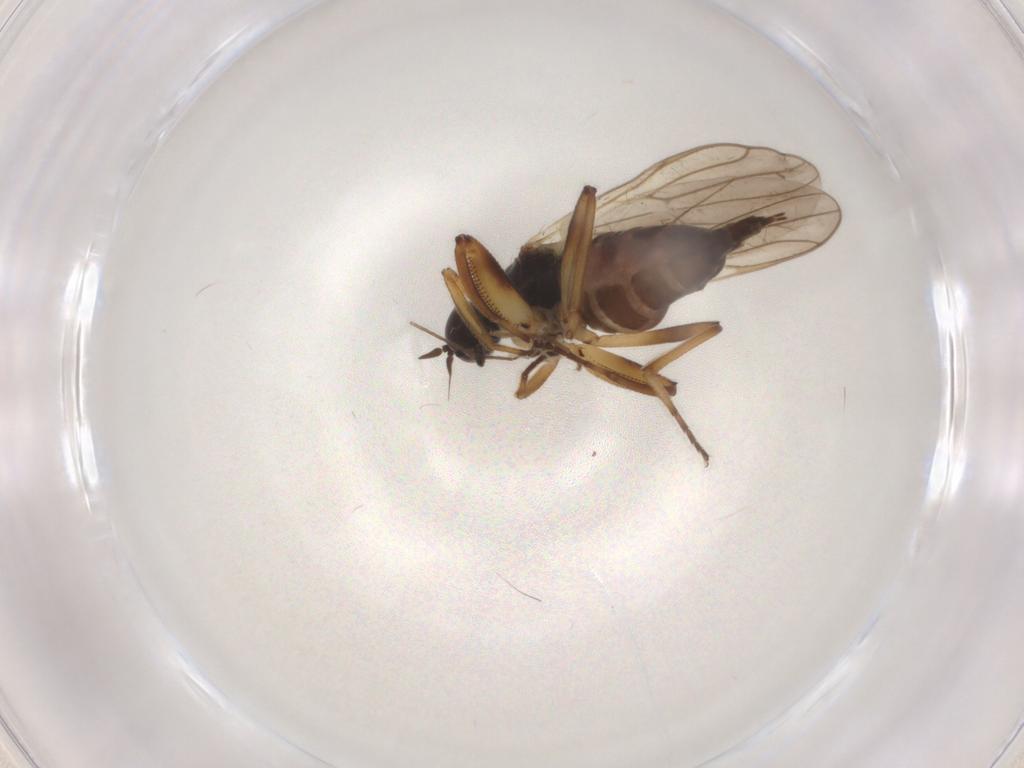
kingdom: Animalia
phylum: Arthropoda
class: Insecta
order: Diptera
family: Hybotidae
